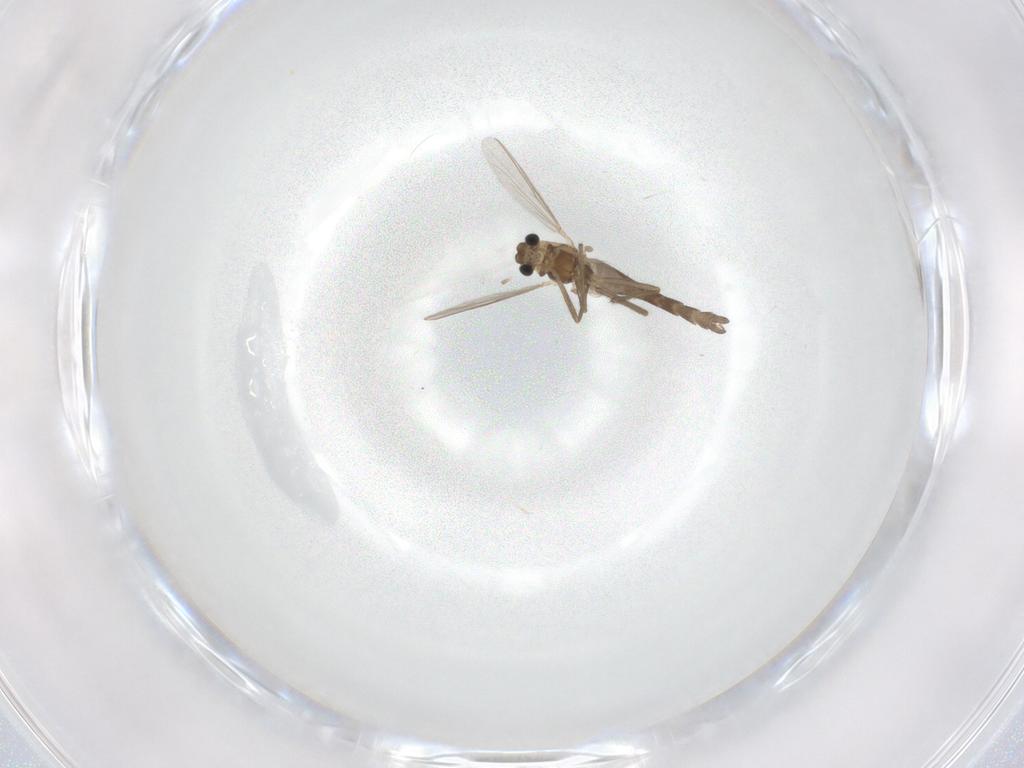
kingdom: Animalia
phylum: Arthropoda
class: Insecta
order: Diptera
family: Chironomidae
